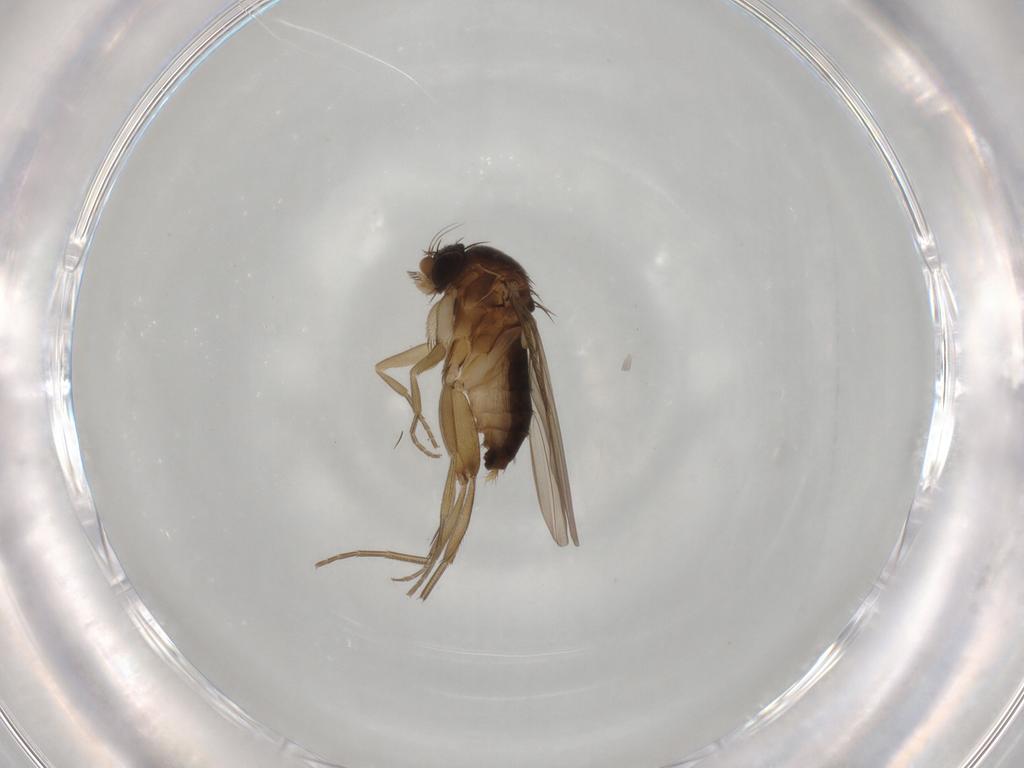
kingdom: Animalia
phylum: Arthropoda
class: Insecta
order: Diptera
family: Phoridae
